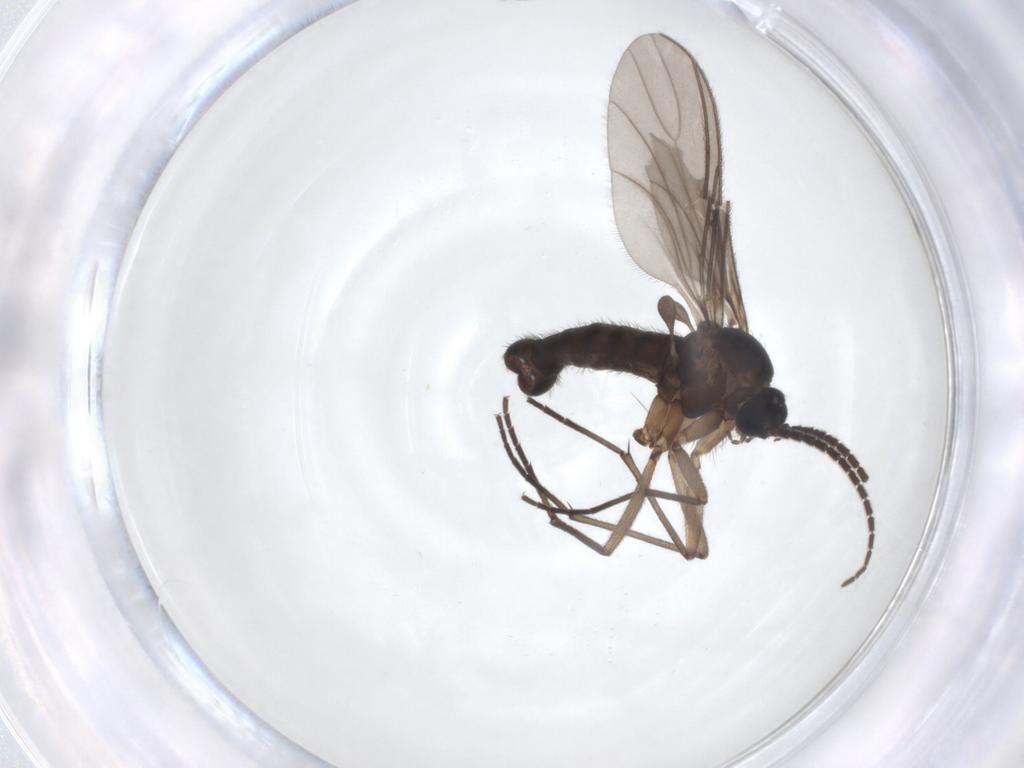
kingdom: Animalia
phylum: Arthropoda
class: Insecta
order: Diptera
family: Sciaridae
